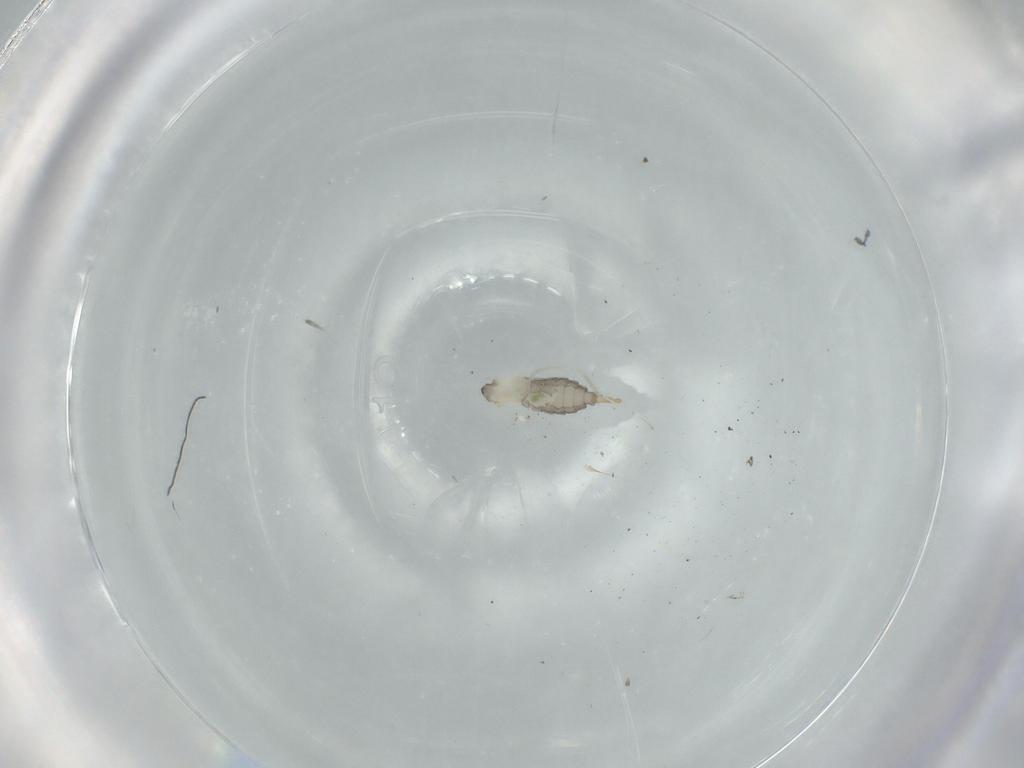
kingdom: Animalia
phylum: Arthropoda
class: Insecta
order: Diptera
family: Cecidomyiidae
